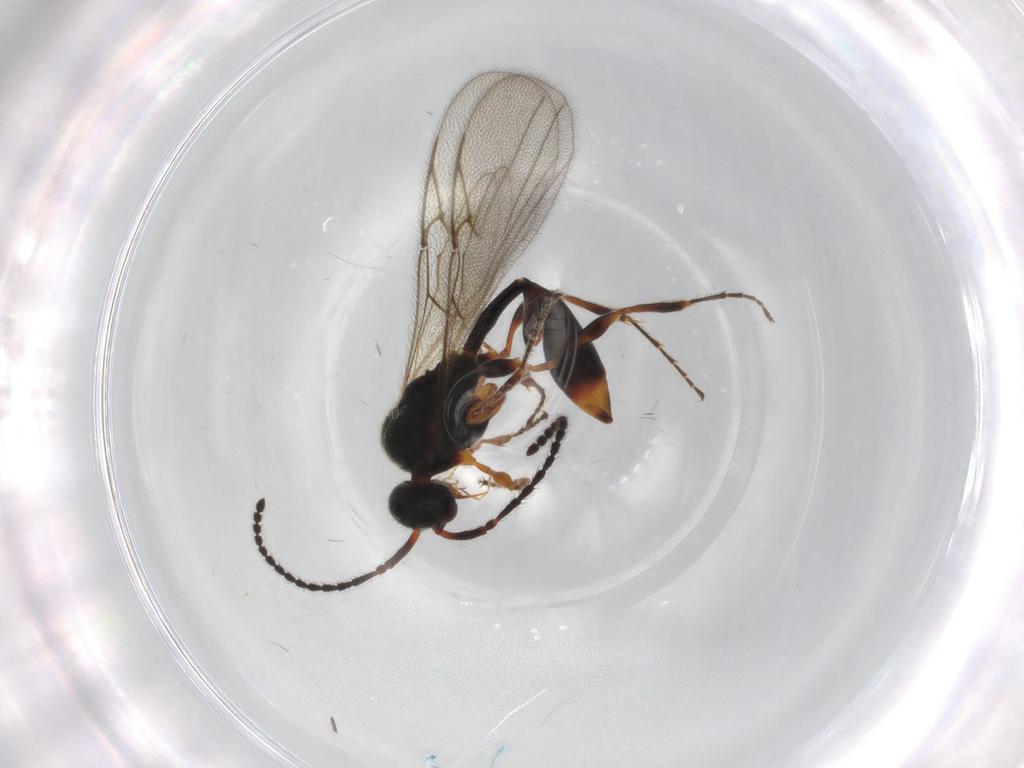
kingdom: Animalia
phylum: Arthropoda
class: Insecta
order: Hymenoptera
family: Diapriidae
